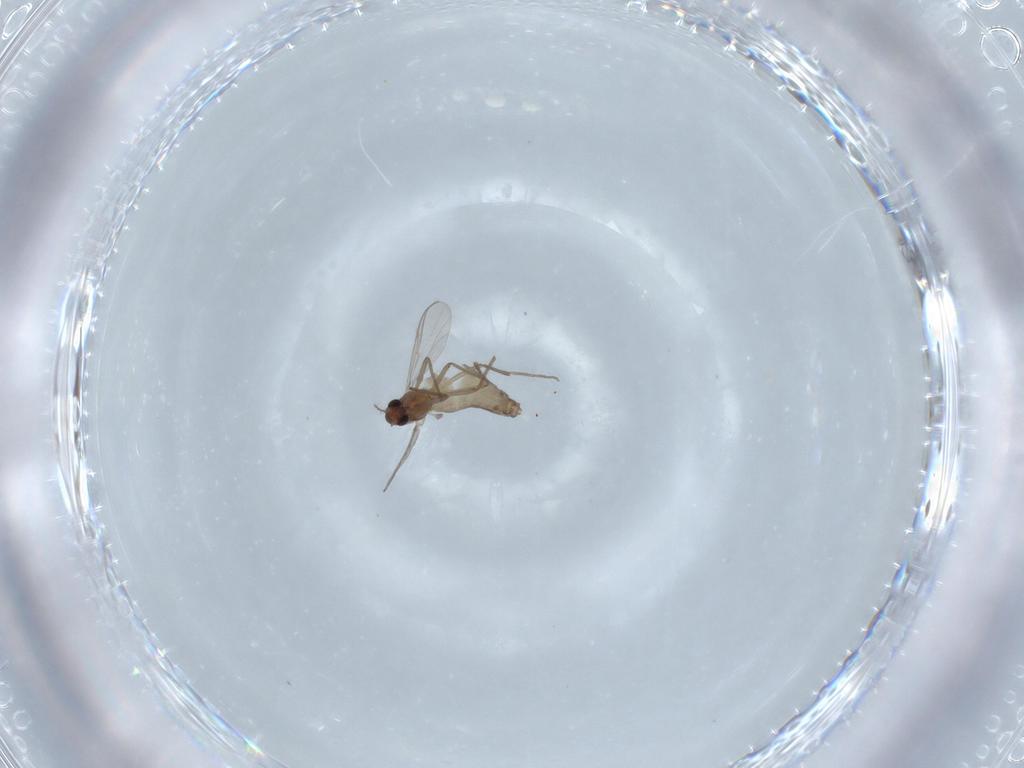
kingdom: Animalia
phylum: Arthropoda
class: Insecta
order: Diptera
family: Chironomidae
